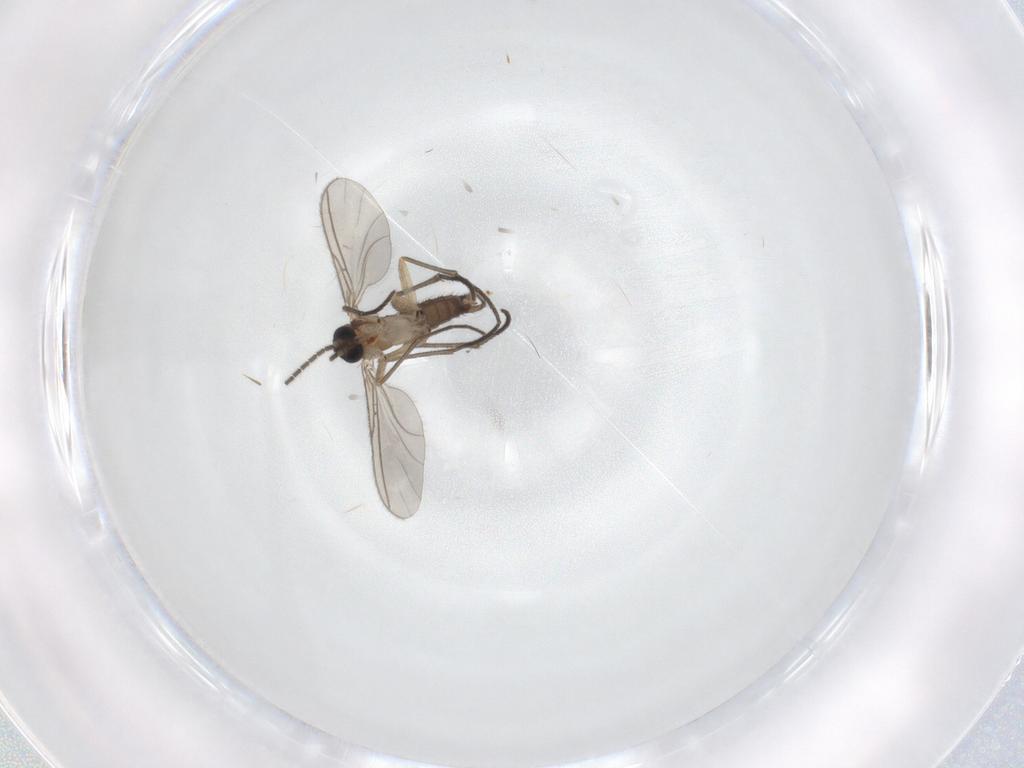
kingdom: Animalia
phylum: Arthropoda
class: Insecta
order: Diptera
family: Sciaridae
